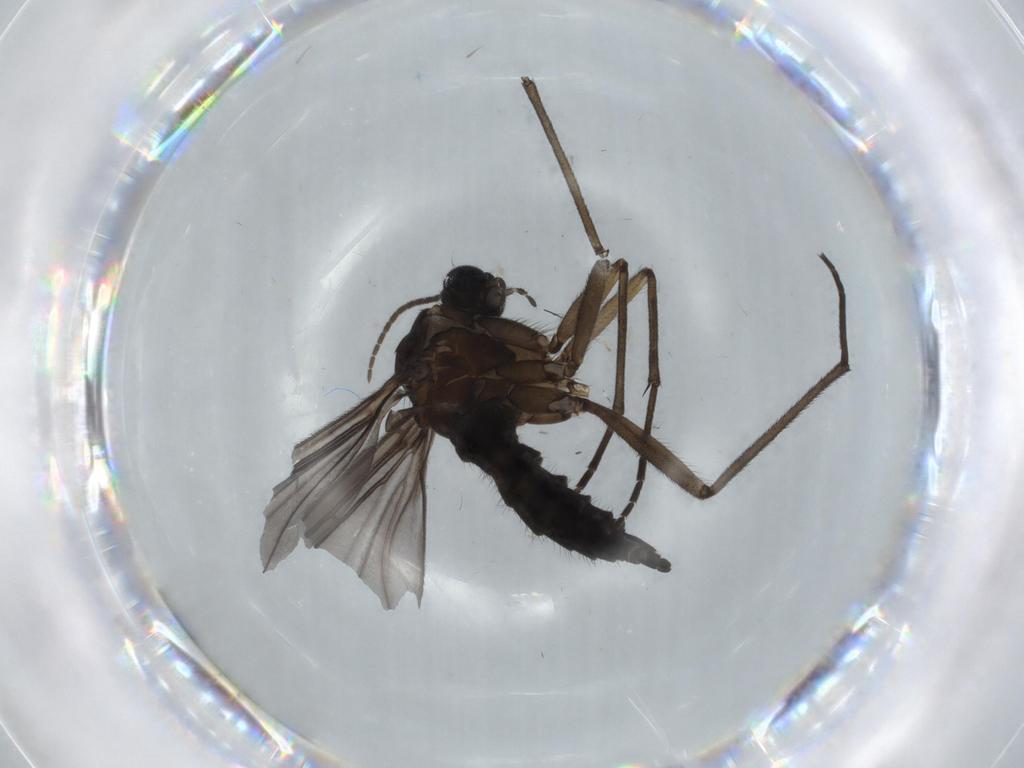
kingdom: Animalia
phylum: Arthropoda
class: Insecta
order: Diptera
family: Sciaridae
